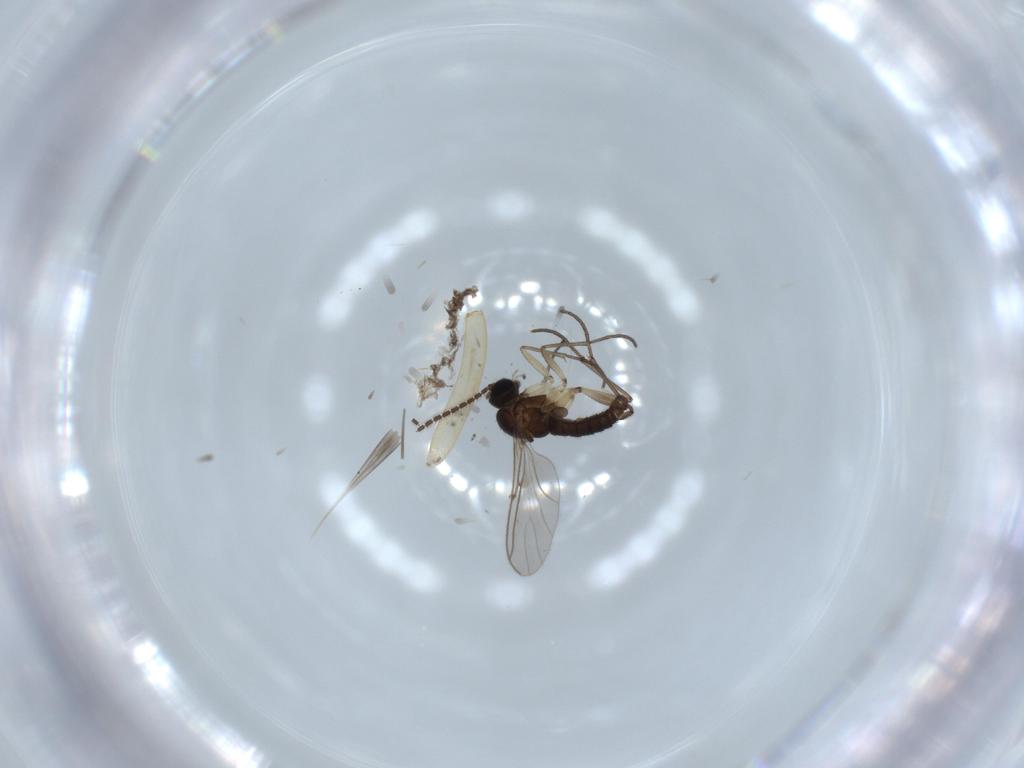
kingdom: Animalia
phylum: Arthropoda
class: Insecta
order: Diptera
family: Sciaridae
